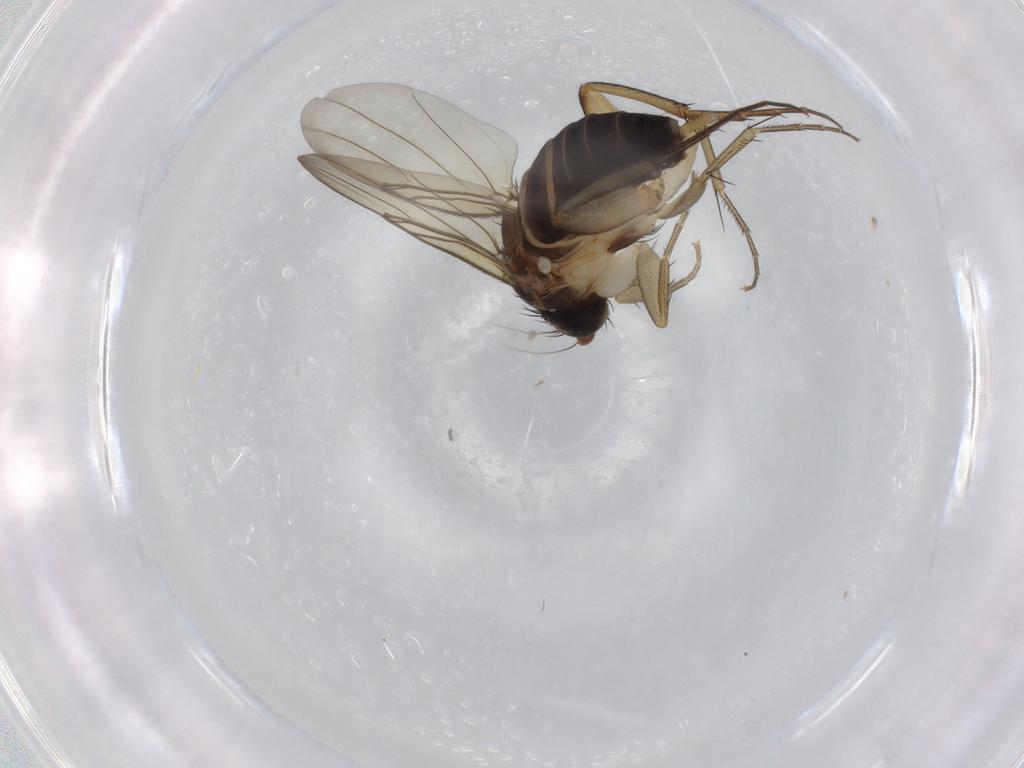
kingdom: Animalia
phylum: Arthropoda
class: Insecta
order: Diptera
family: Phoridae
